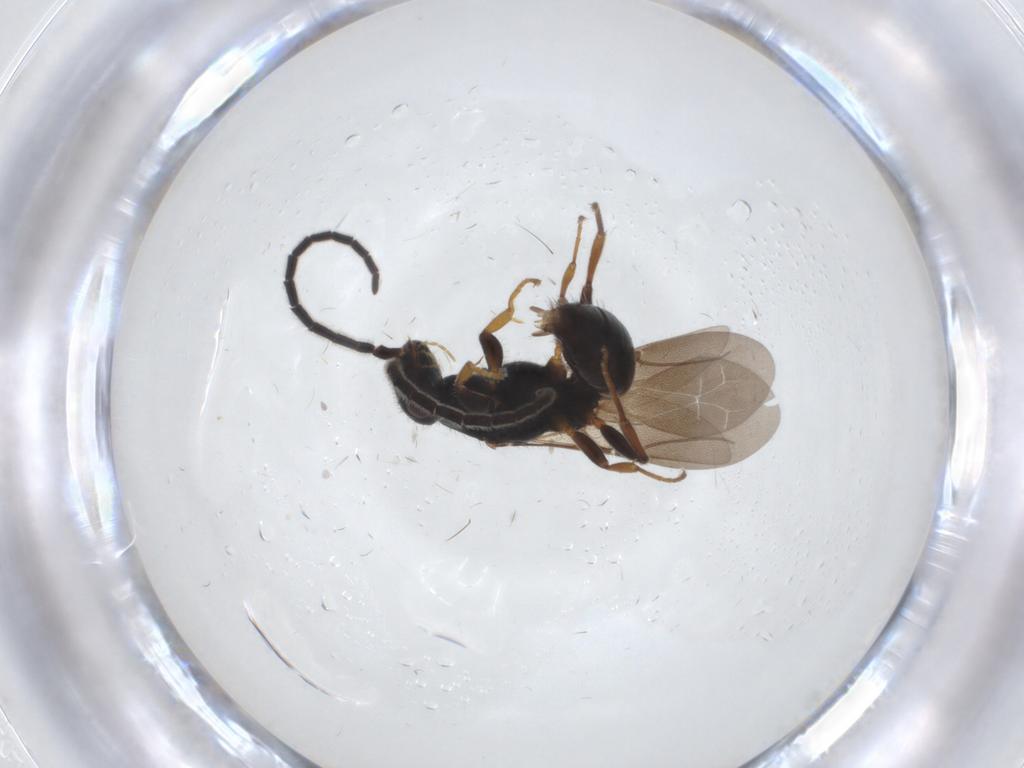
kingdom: Animalia
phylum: Arthropoda
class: Insecta
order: Hymenoptera
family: Bethylidae
